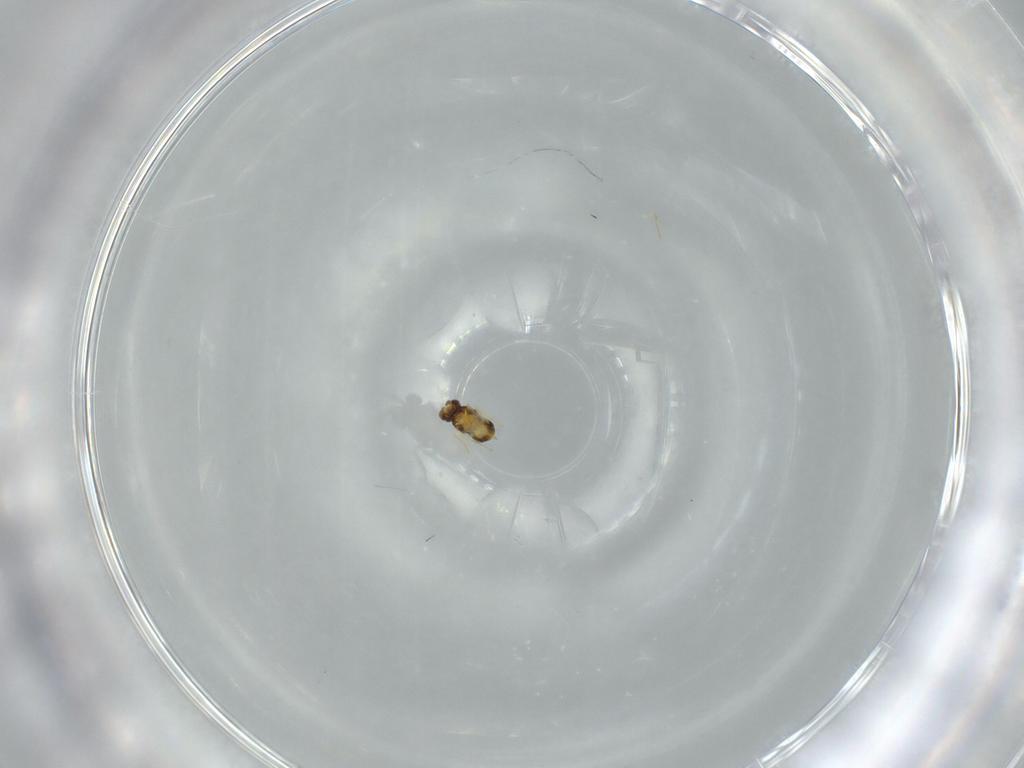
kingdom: Animalia
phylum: Arthropoda
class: Insecta
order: Hymenoptera
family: Aphelinidae
